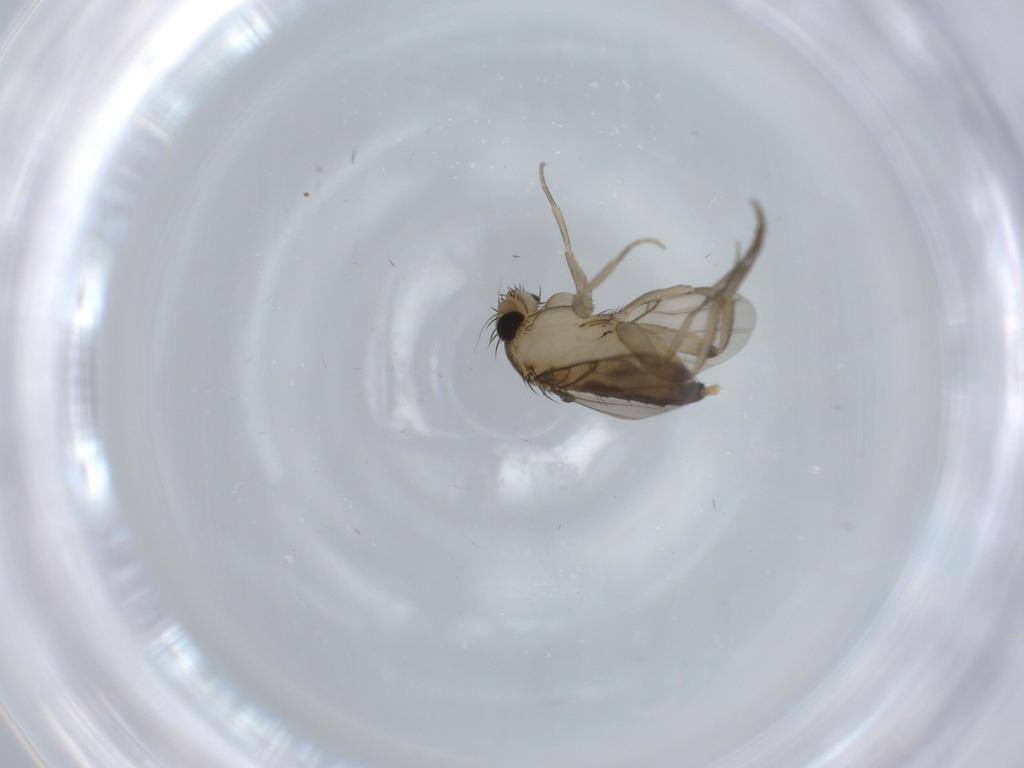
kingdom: Animalia
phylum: Arthropoda
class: Insecta
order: Diptera
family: Phoridae
